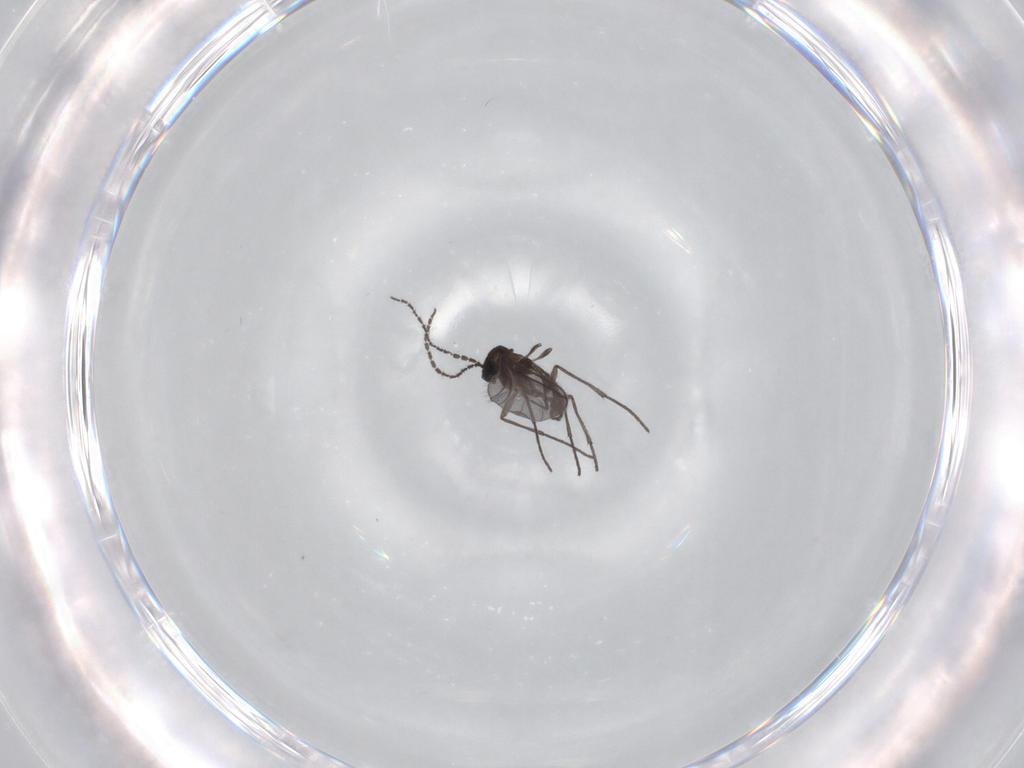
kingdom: Animalia
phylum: Arthropoda
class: Insecta
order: Diptera
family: Sciaridae
